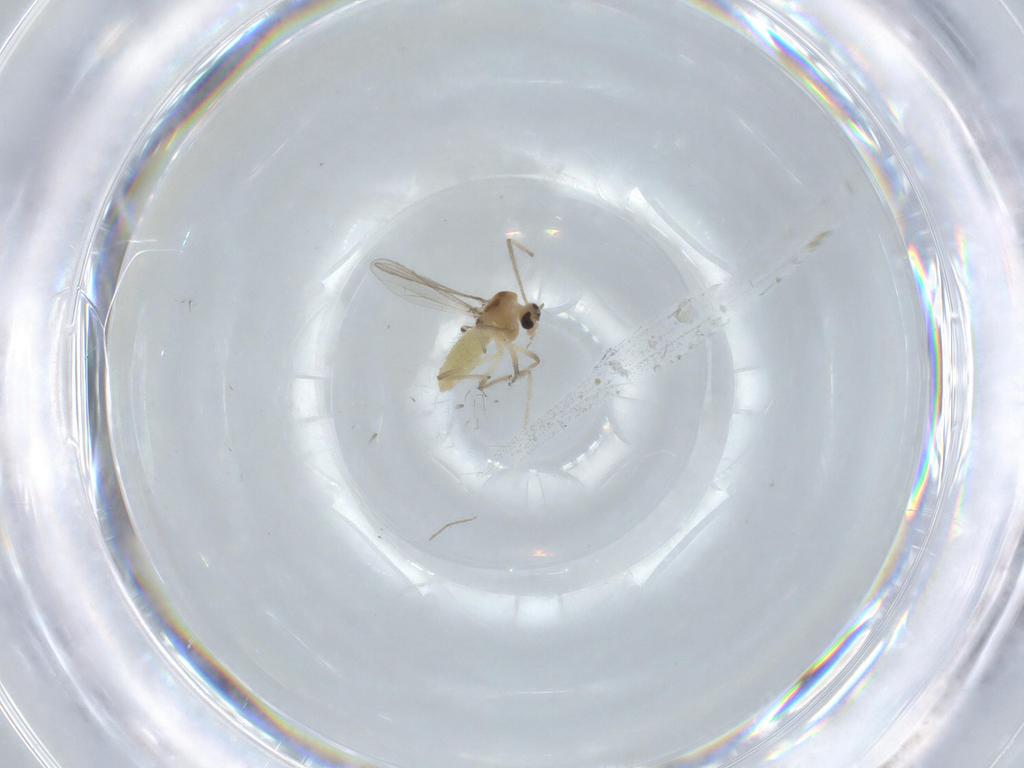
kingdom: Animalia
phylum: Arthropoda
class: Insecta
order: Diptera
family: Chironomidae
